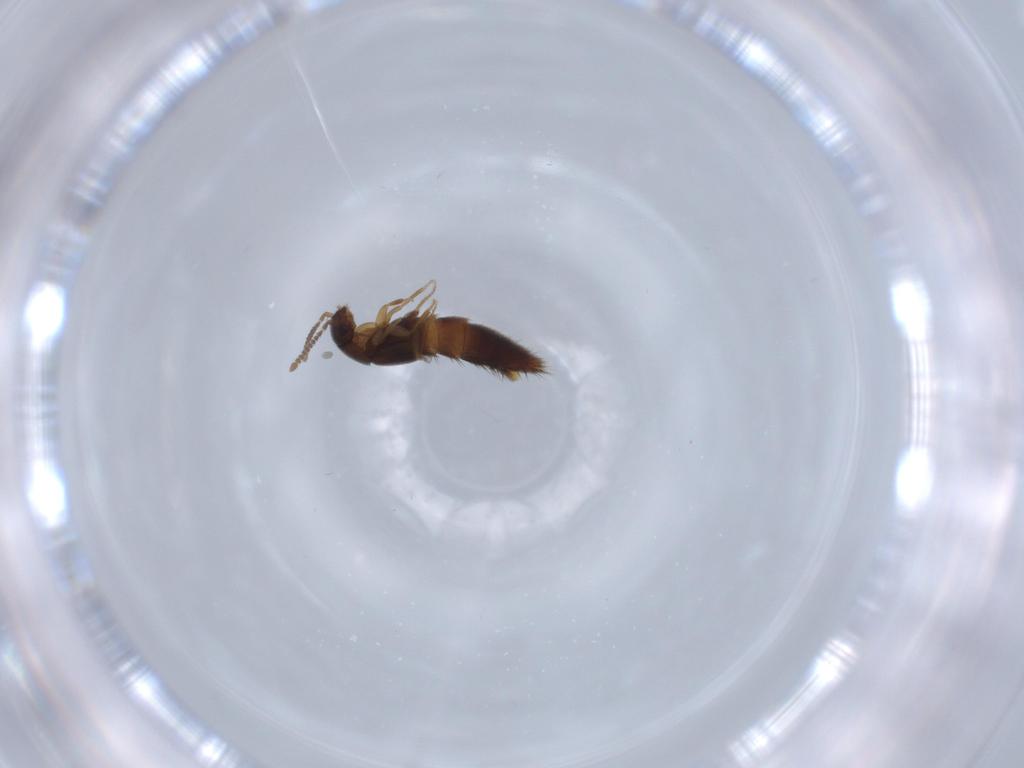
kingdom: Animalia
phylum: Arthropoda
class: Insecta
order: Coleoptera
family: Staphylinidae
